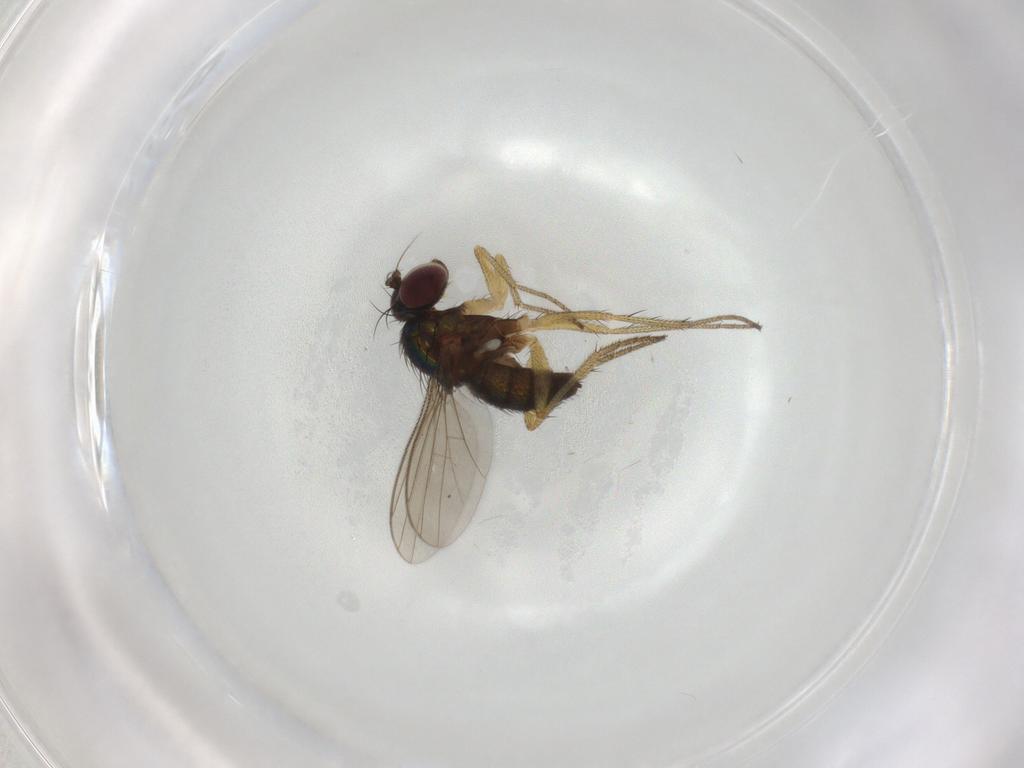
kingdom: Animalia
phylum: Arthropoda
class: Insecta
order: Diptera
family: Dolichopodidae
